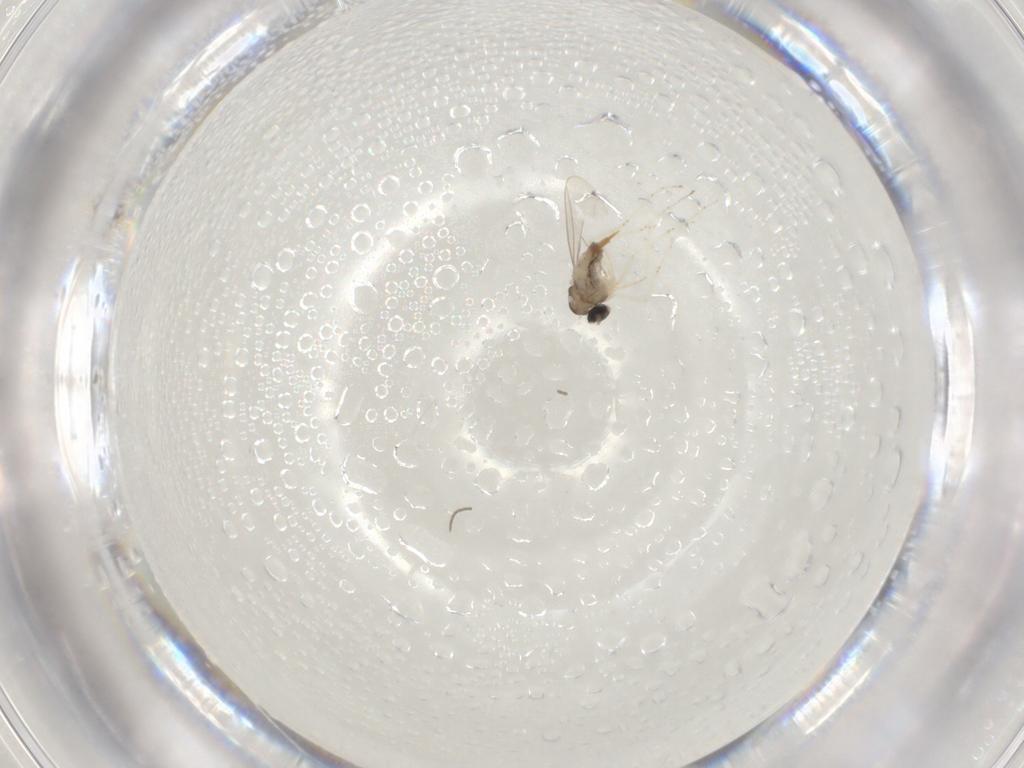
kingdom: Animalia
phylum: Arthropoda
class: Insecta
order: Diptera
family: Cecidomyiidae
